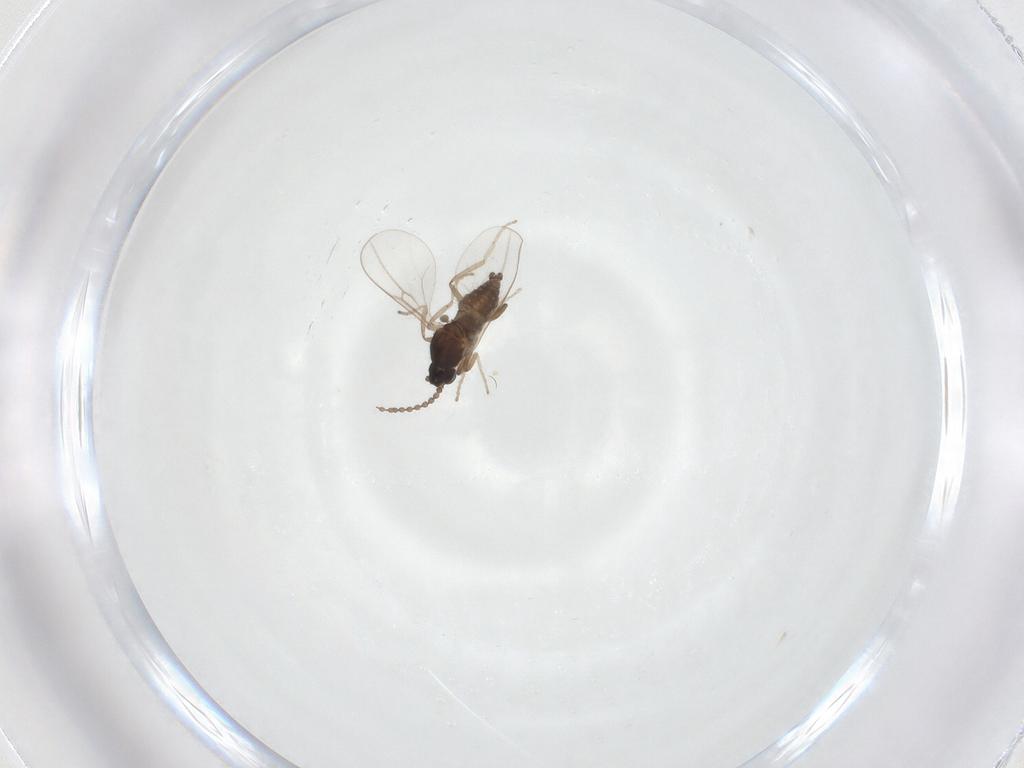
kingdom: Animalia
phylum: Arthropoda
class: Insecta
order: Diptera
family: Cecidomyiidae
